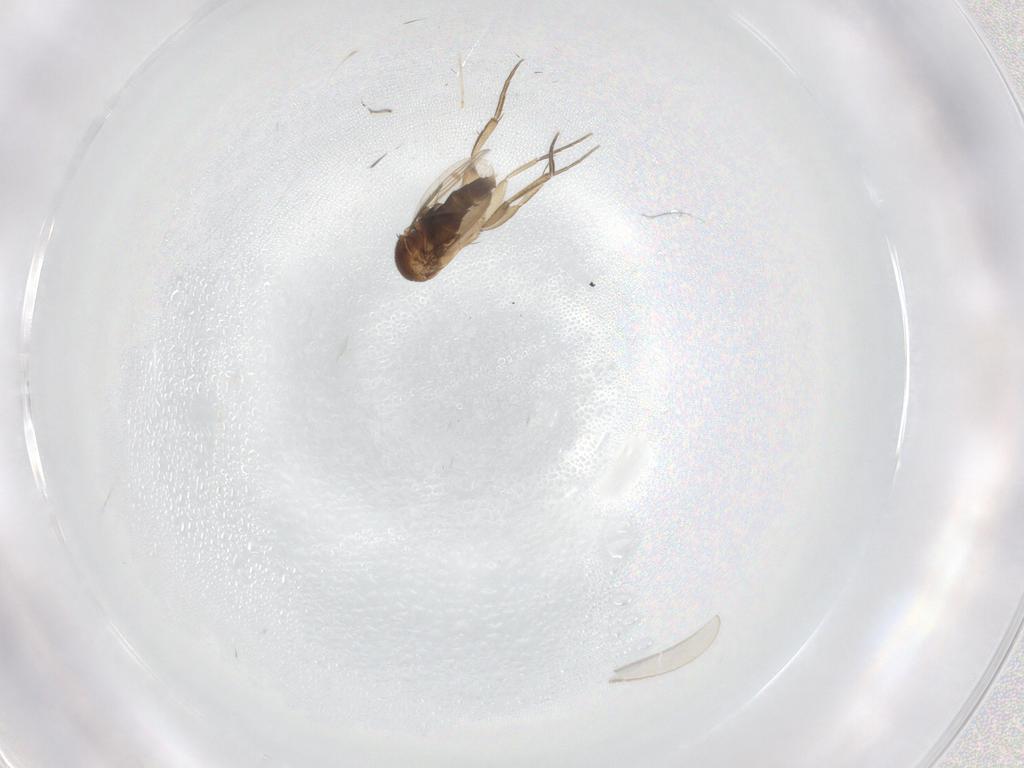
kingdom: Animalia
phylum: Arthropoda
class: Insecta
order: Diptera
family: Phoridae
